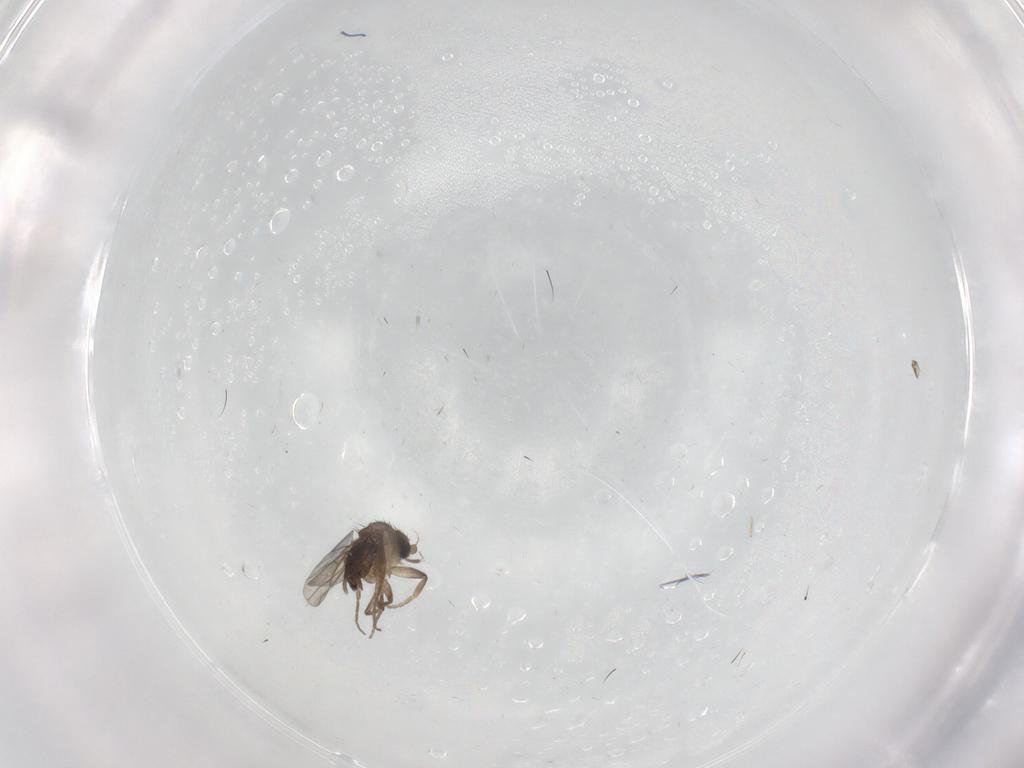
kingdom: Animalia
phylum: Arthropoda
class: Insecta
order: Diptera
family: Phoridae
